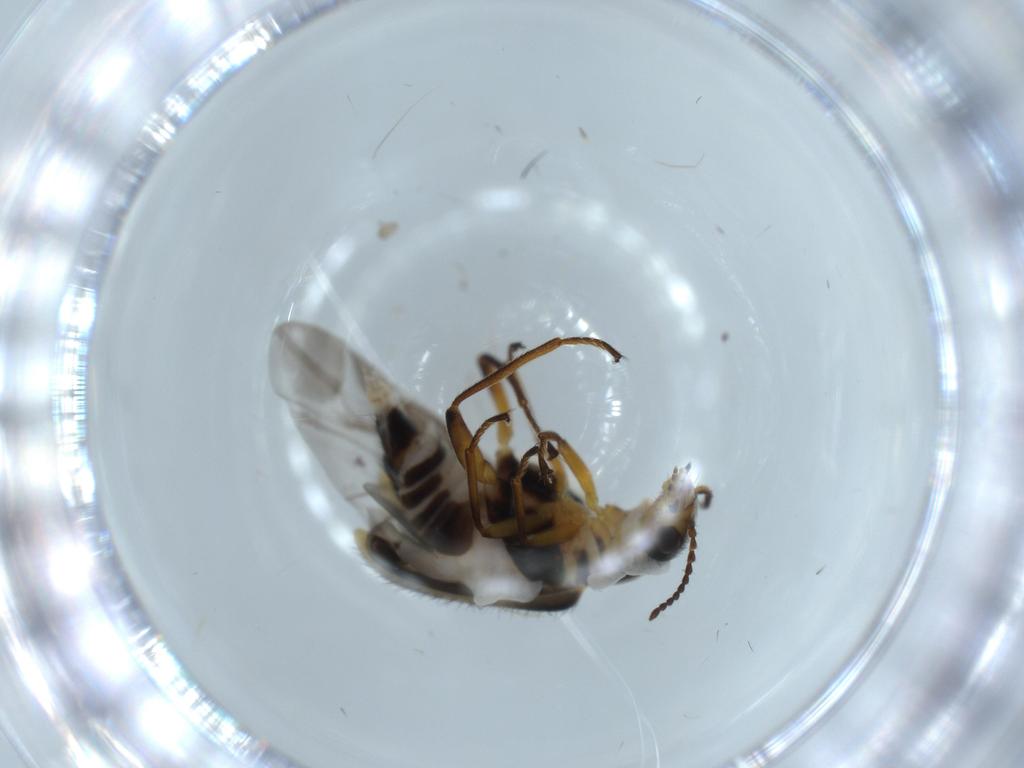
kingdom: Animalia
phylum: Arthropoda
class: Insecta
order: Coleoptera
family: Melyridae
